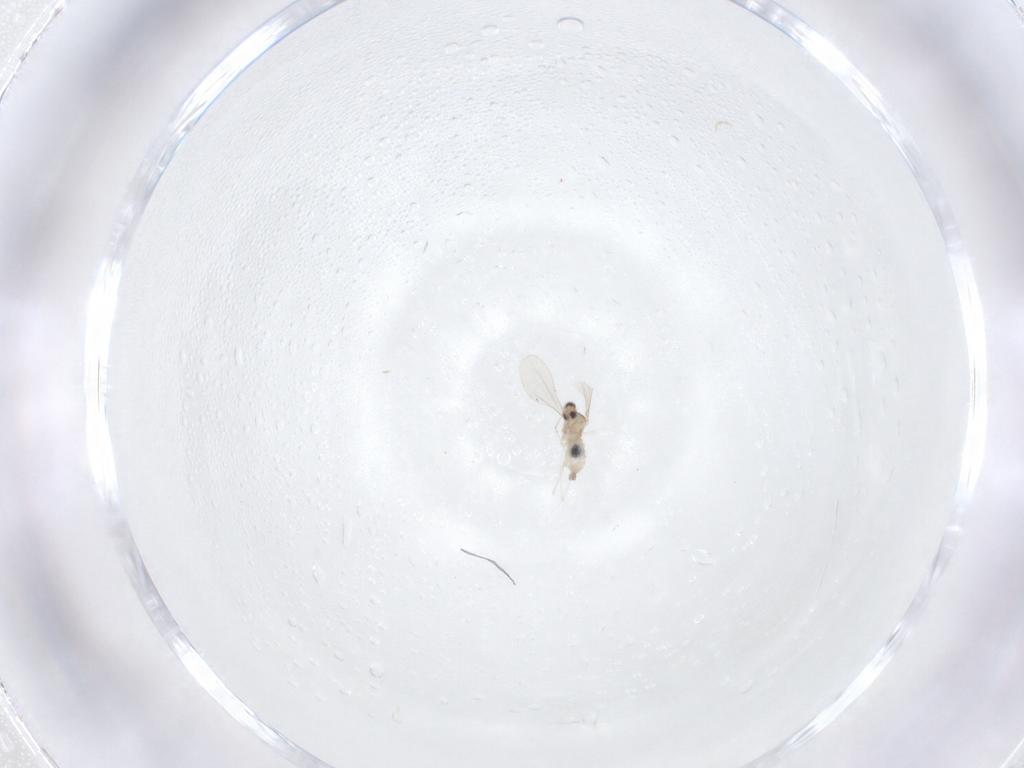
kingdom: Animalia
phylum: Arthropoda
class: Insecta
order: Diptera
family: Cecidomyiidae
